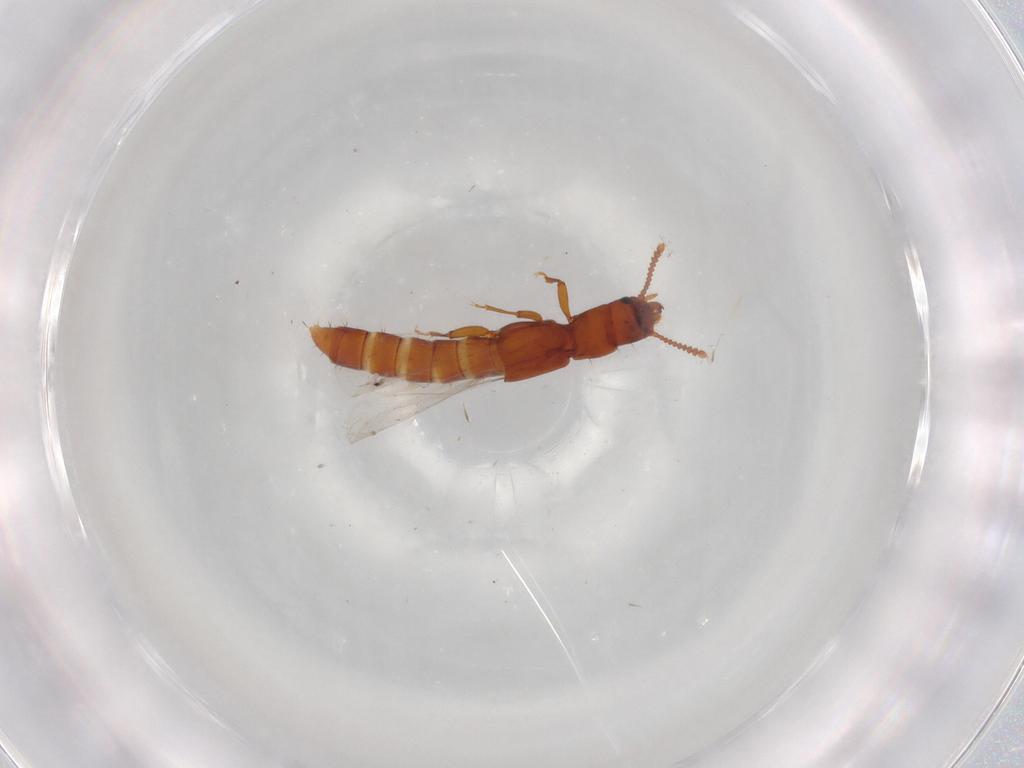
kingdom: Animalia
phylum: Arthropoda
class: Insecta
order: Coleoptera
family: Staphylinidae
